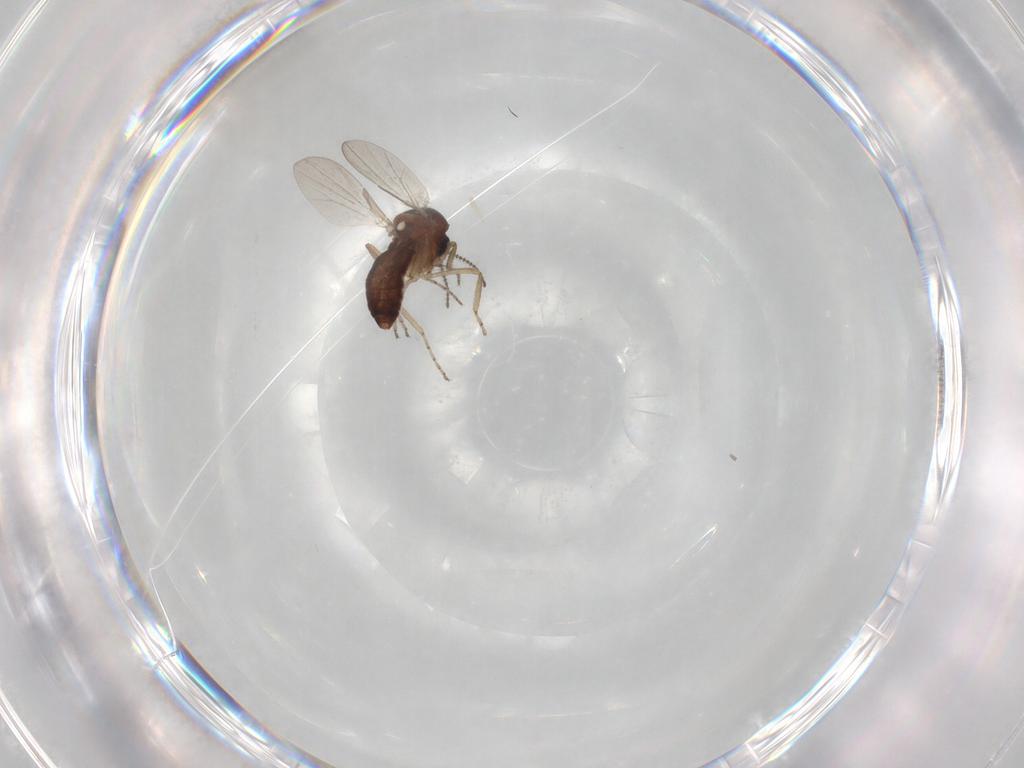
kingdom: Animalia
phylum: Arthropoda
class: Insecta
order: Diptera
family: Ceratopogonidae
